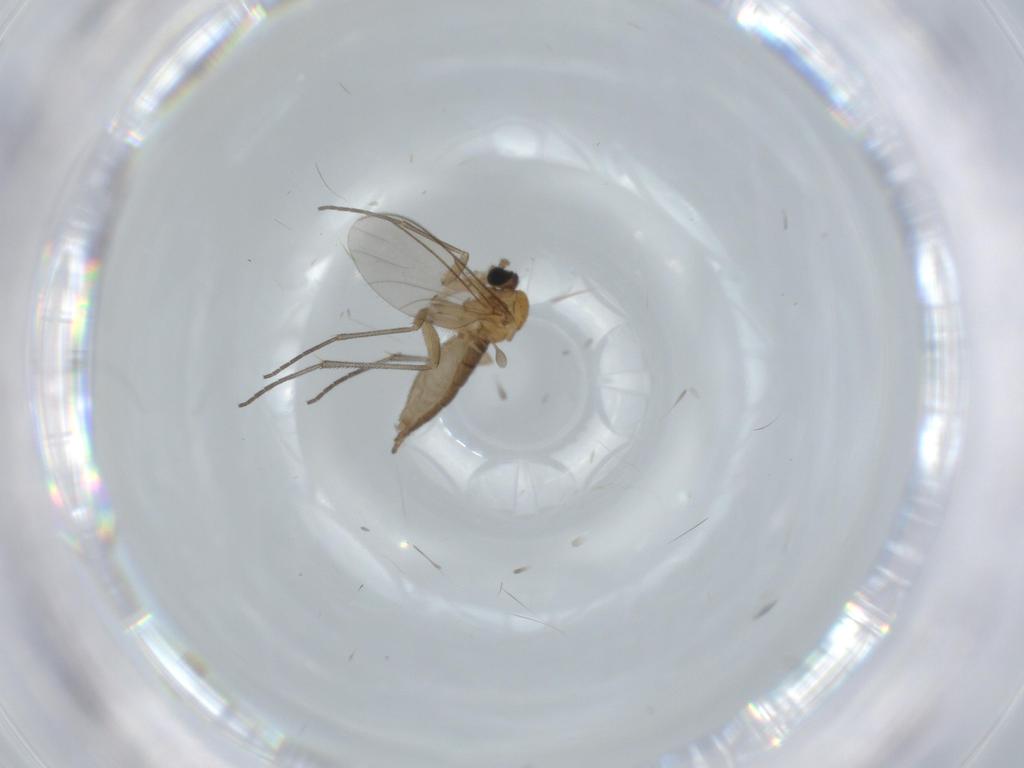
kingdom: Animalia
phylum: Arthropoda
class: Insecta
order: Diptera
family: Sciaridae
